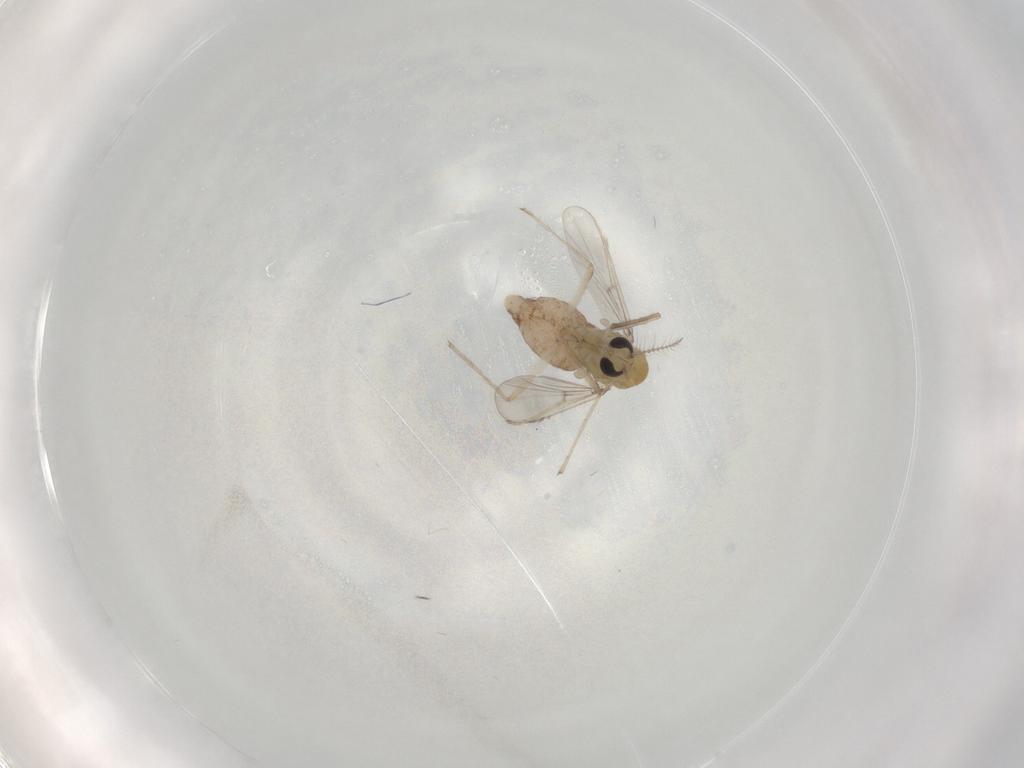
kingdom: Animalia
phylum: Arthropoda
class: Insecta
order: Diptera
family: Chironomidae
